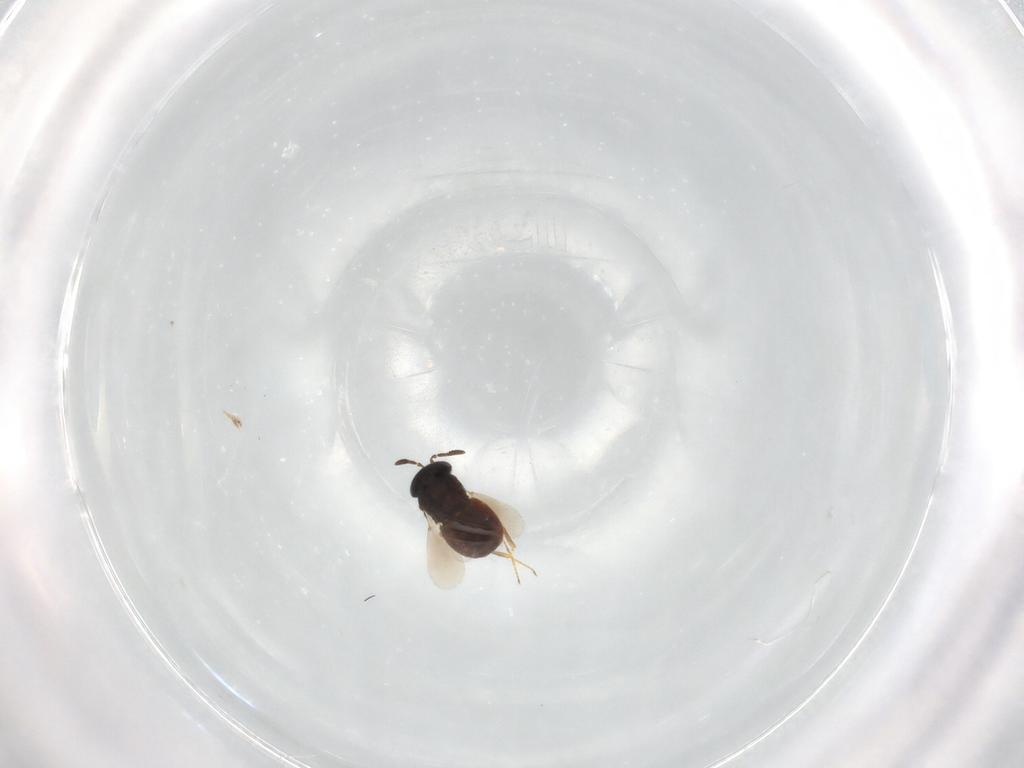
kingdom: Animalia
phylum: Arthropoda
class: Insecta
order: Hymenoptera
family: Scelionidae
